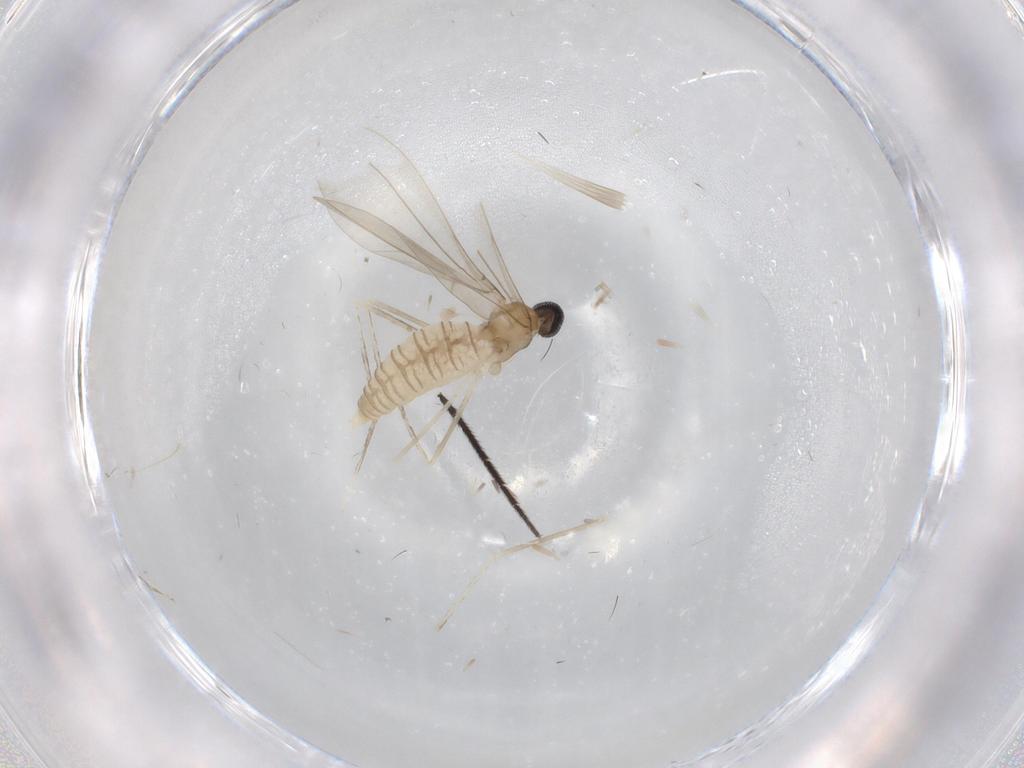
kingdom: Animalia
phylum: Arthropoda
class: Insecta
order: Diptera
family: Cecidomyiidae
